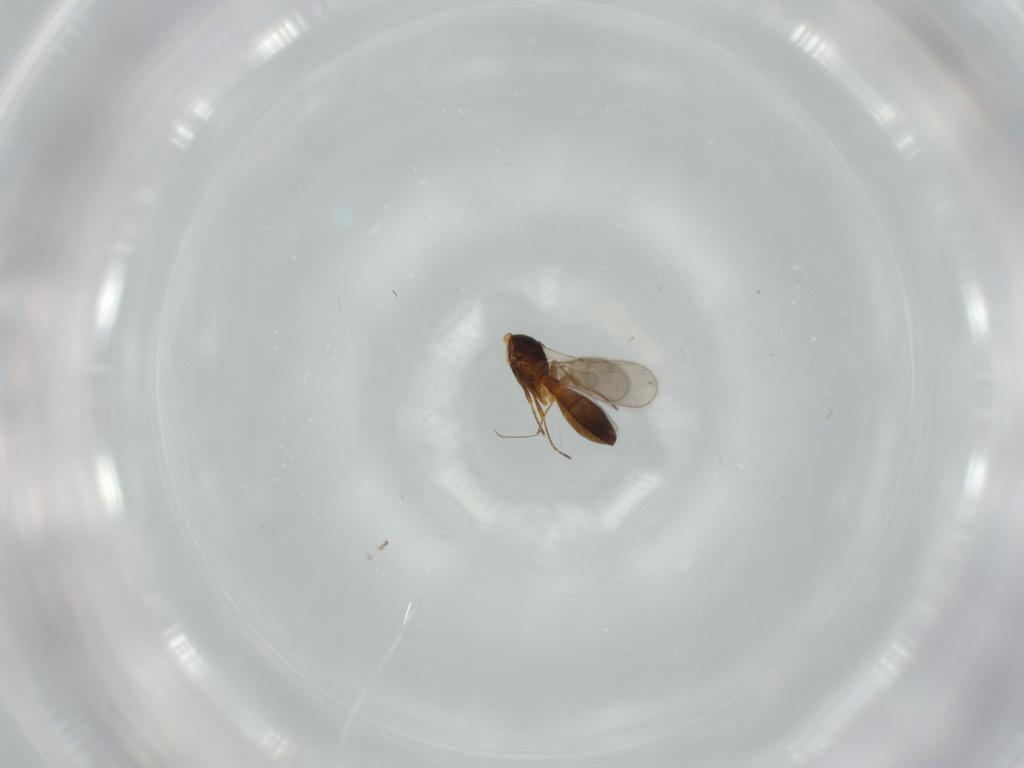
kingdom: Animalia
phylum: Arthropoda
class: Insecta
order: Hymenoptera
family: Scelionidae
